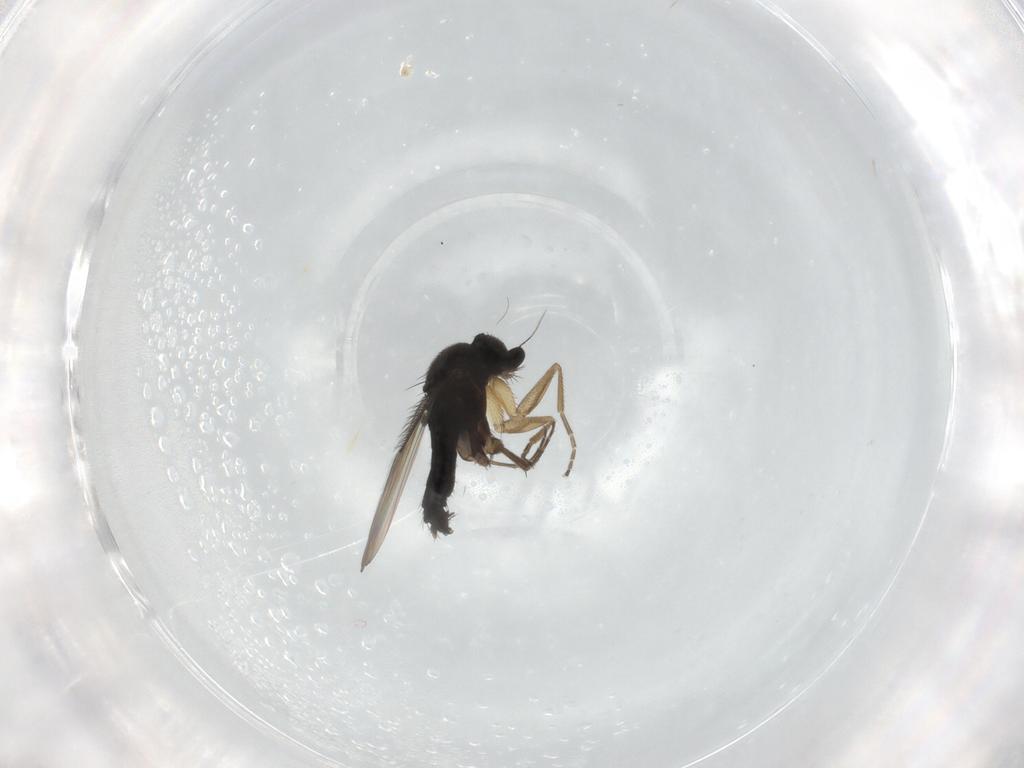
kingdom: Animalia
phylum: Arthropoda
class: Insecta
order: Diptera
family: Phoridae
